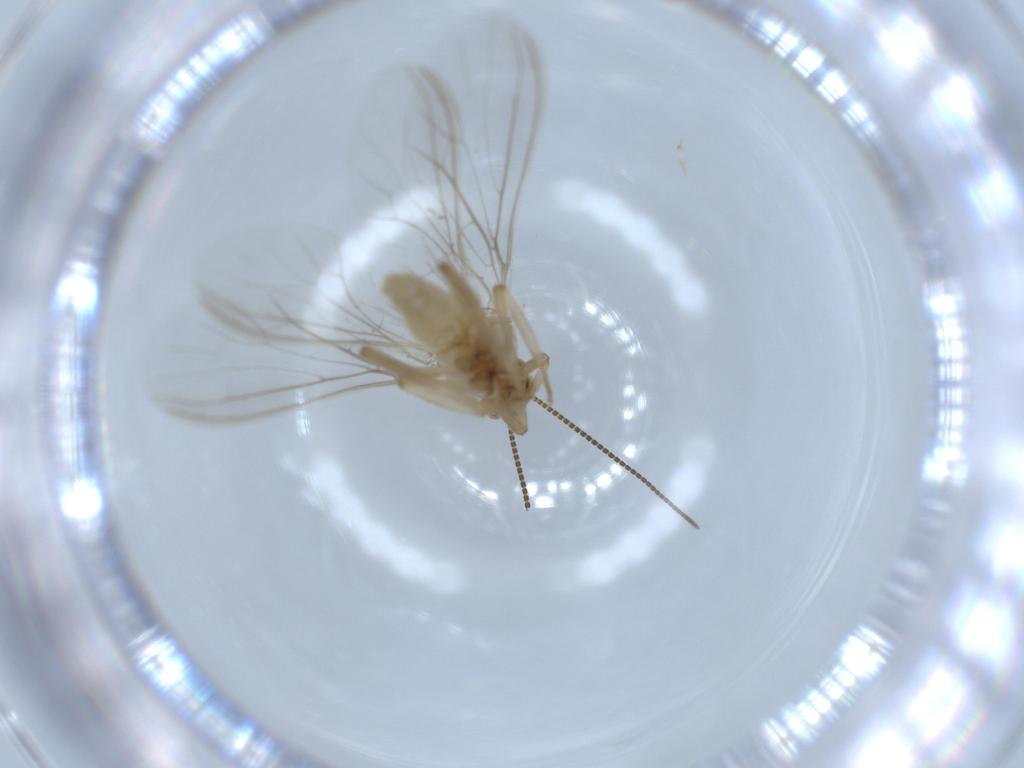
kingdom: Animalia
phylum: Arthropoda
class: Insecta
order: Neuroptera
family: Coniopterygidae
